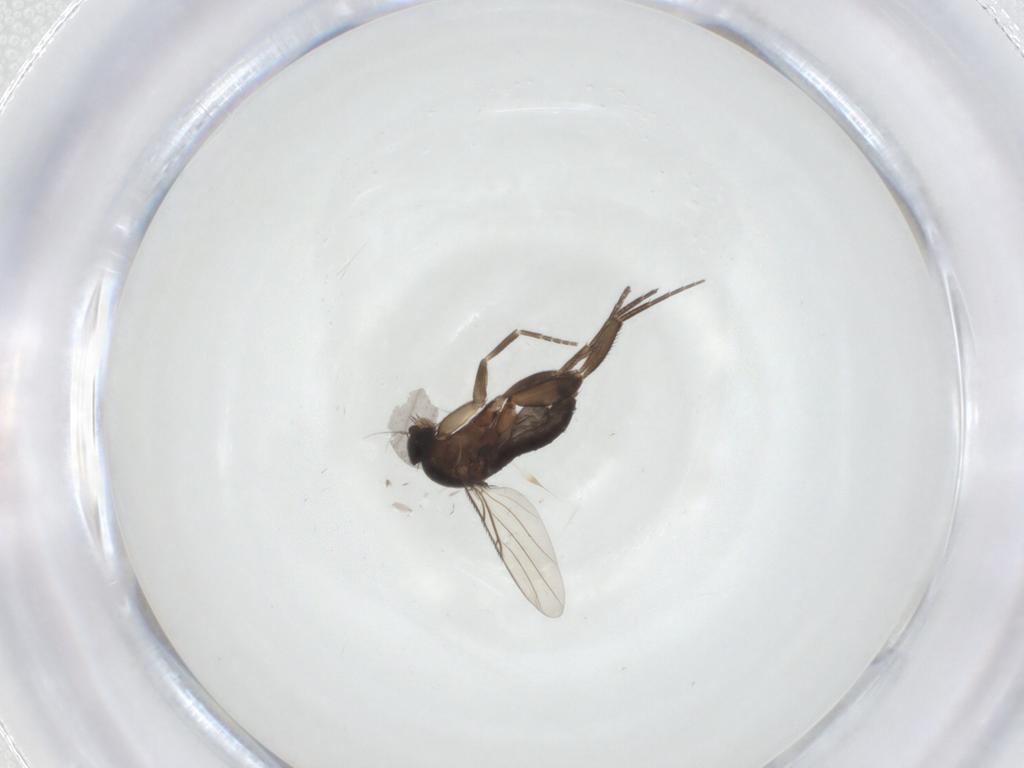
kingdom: Animalia
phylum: Arthropoda
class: Insecta
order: Diptera
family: Phoridae
